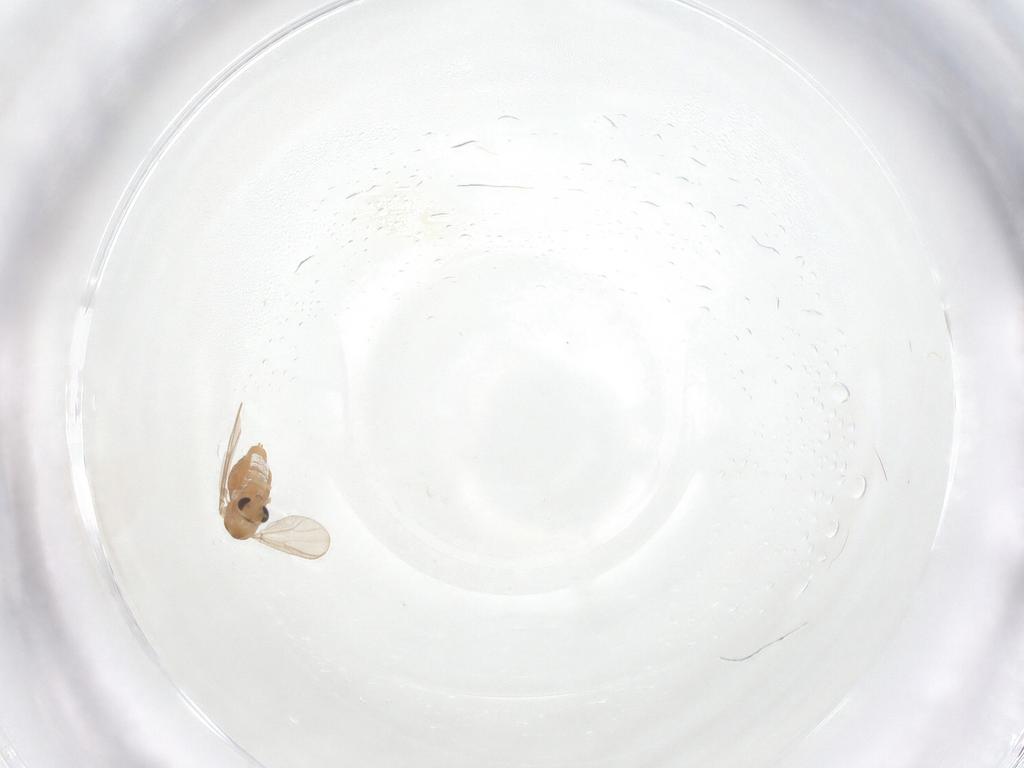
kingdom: Animalia
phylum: Arthropoda
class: Insecta
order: Diptera
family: Chironomidae
